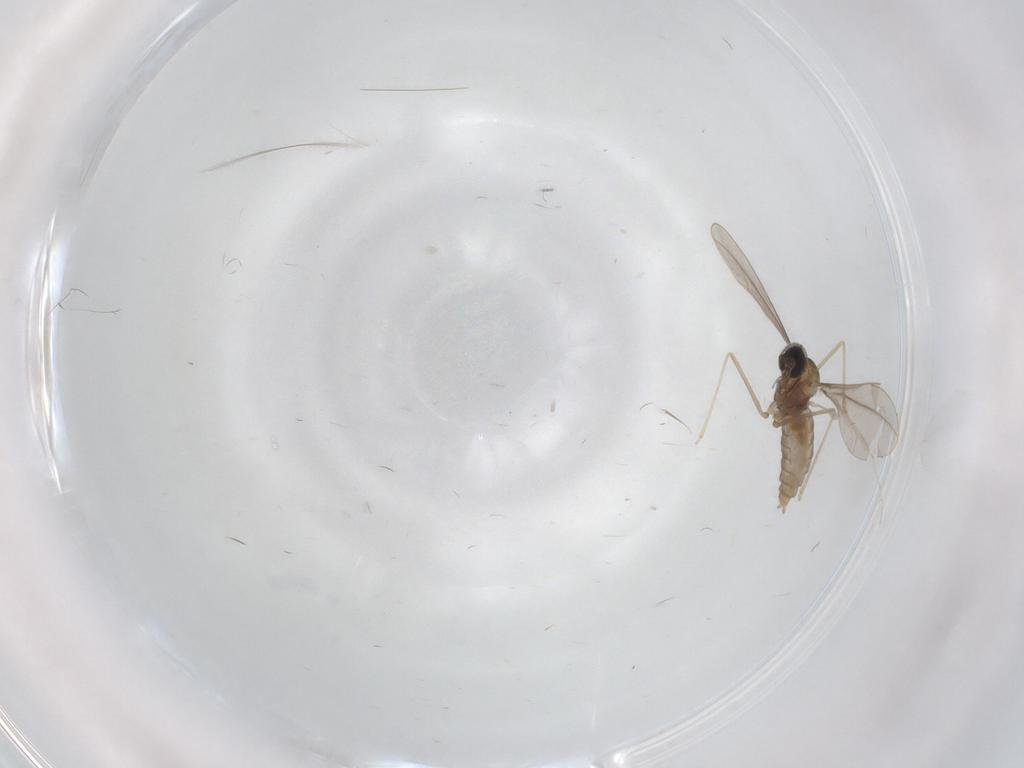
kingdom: Animalia
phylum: Arthropoda
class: Insecta
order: Diptera
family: Cecidomyiidae
